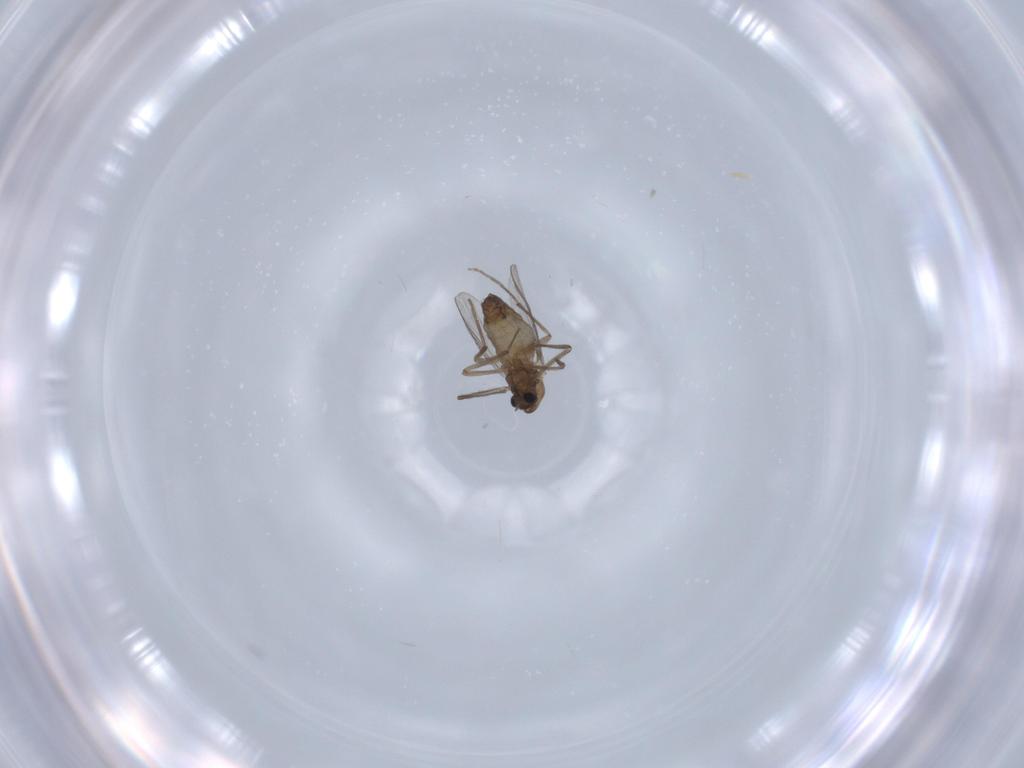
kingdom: Animalia
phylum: Arthropoda
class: Insecta
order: Diptera
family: Chironomidae
